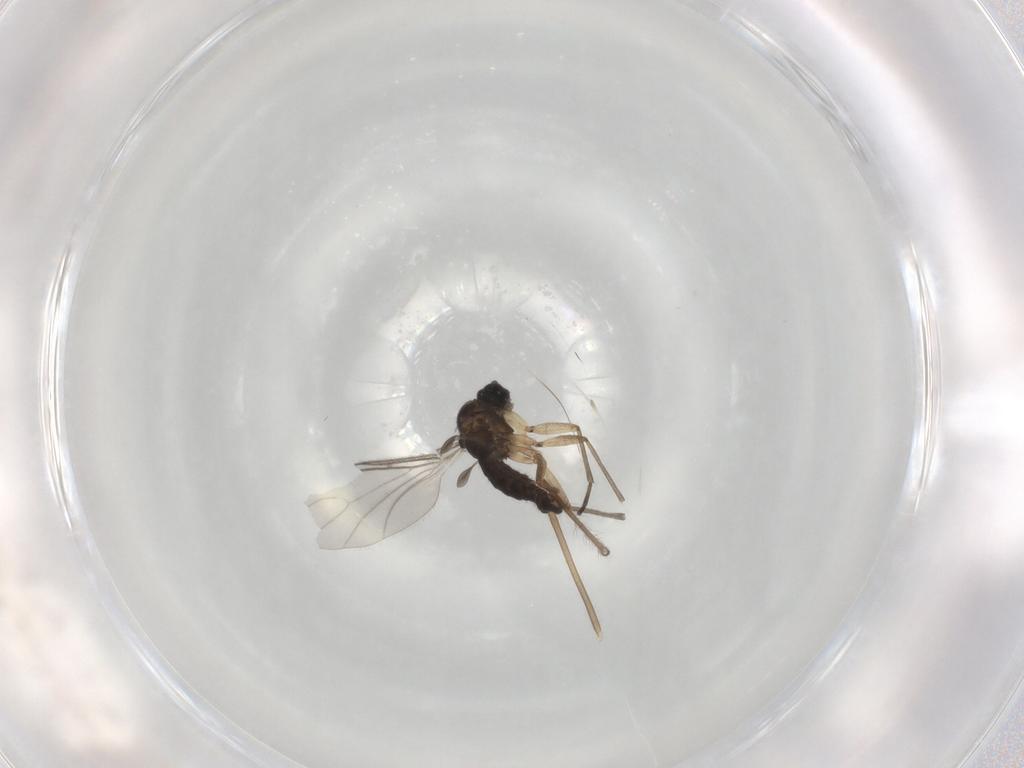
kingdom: Animalia
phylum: Arthropoda
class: Insecta
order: Diptera
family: Sciaridae
